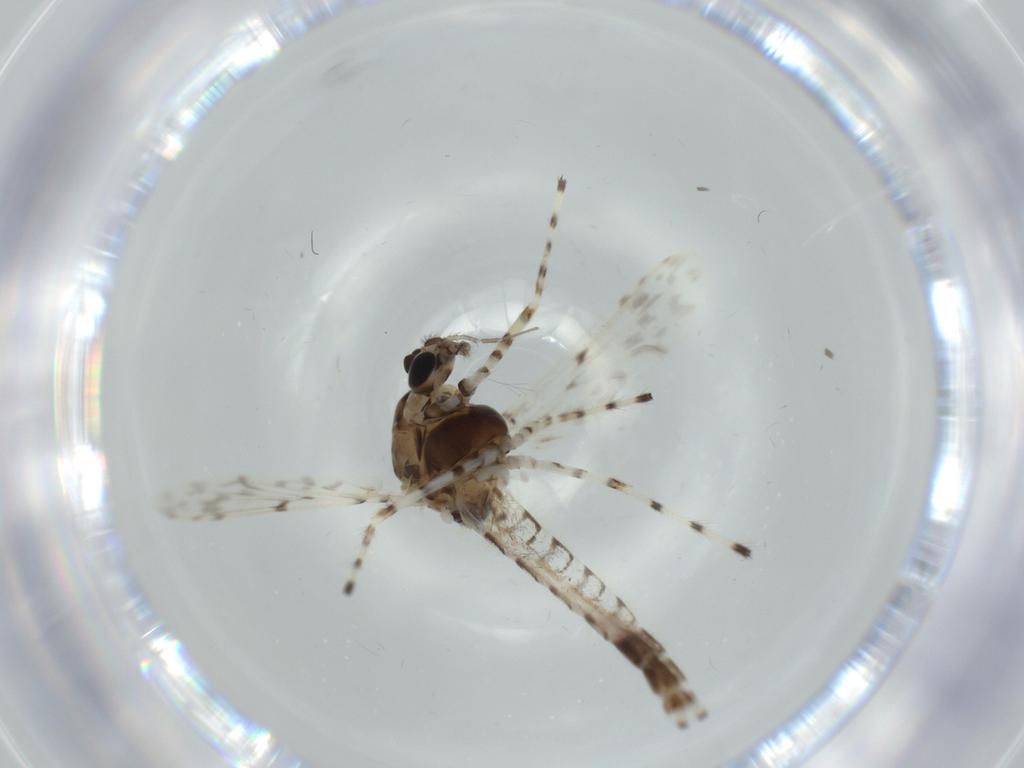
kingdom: Animalia
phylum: Arthropoda
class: Insecta
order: Diptera
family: Chironomidae
